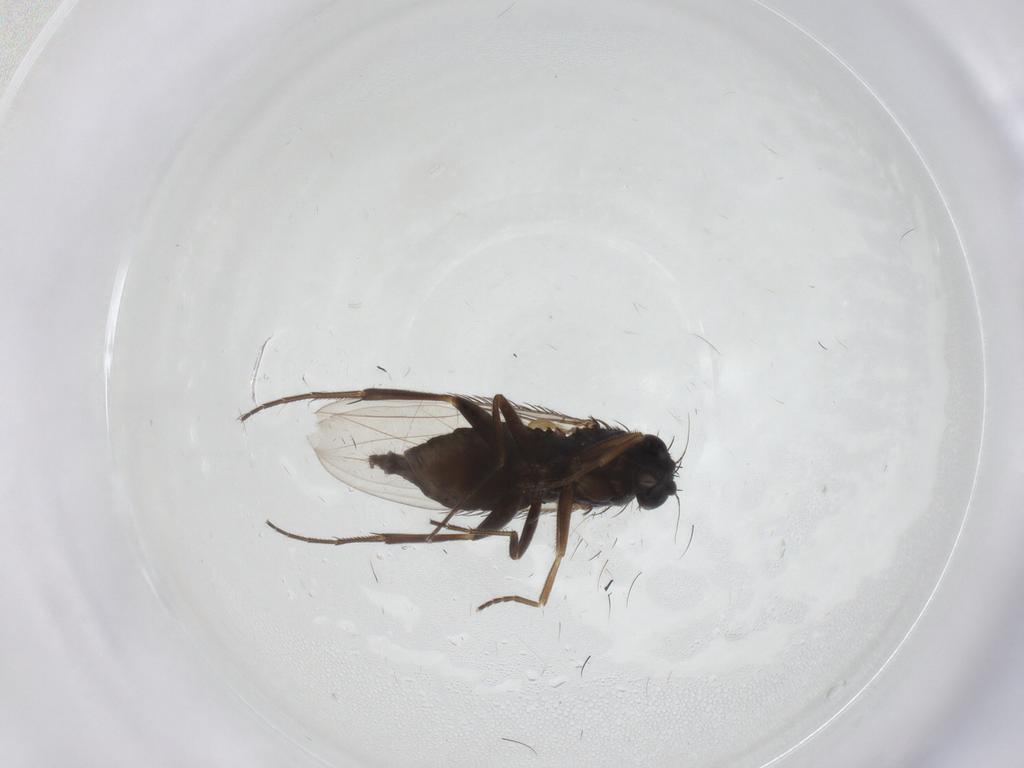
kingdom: Animalia
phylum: Arthropoda
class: Insecta
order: Diptera
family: Phoridae
